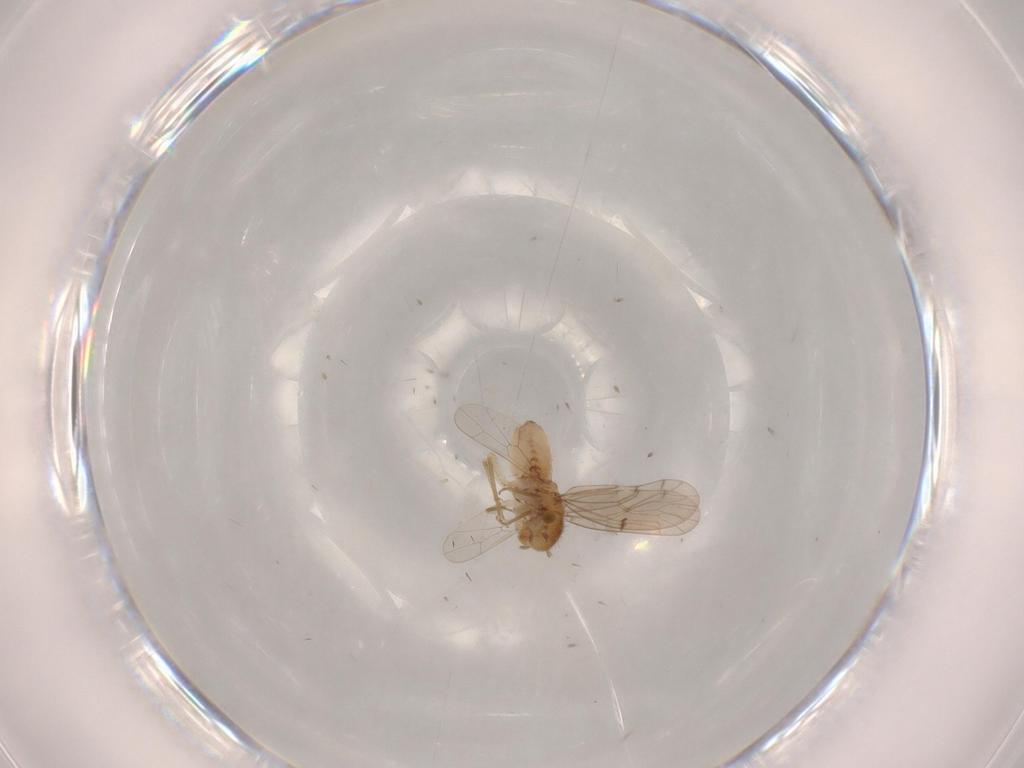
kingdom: Animalia
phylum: Arthropoda
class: Insecta
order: Psocodea
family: Ectopsocidae
